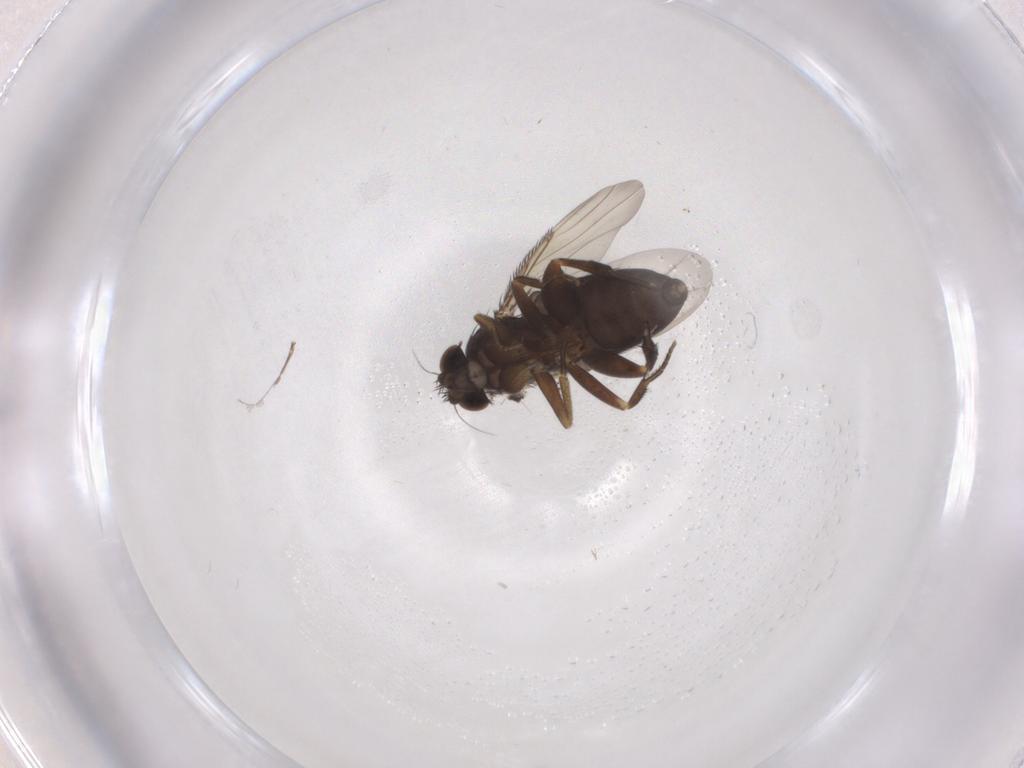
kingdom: Animalia
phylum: Arthropoda
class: Insecta
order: Diptera
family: Phoridae
